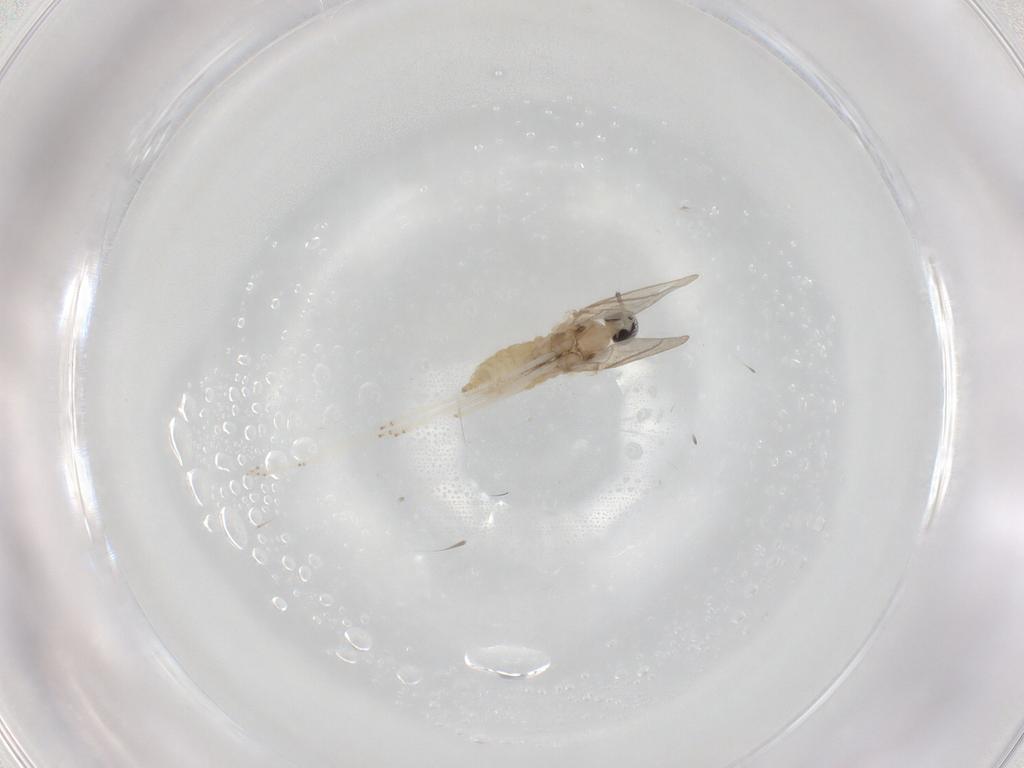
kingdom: Animalia
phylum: Arthropoda
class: Insecta
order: Diptera
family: Cecidomyiidae
